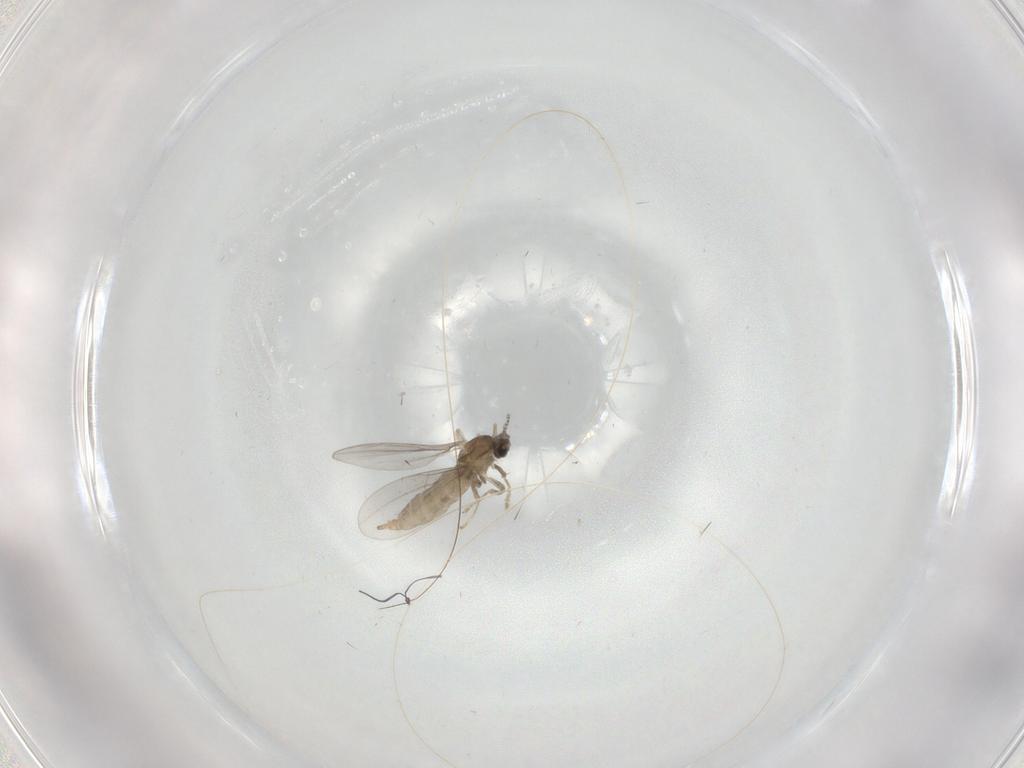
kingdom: Animalia
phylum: Arthropoda
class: Insecta
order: Diptera
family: Cecidomyiidae
